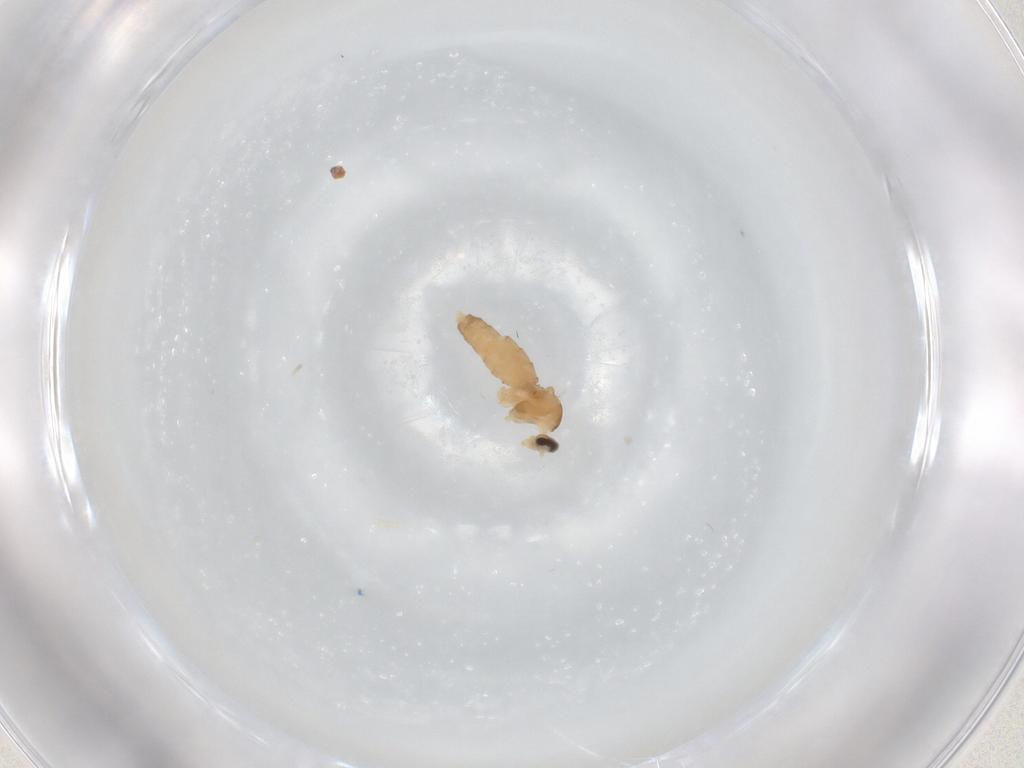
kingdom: Animalia
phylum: Arthropoda
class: Insecta
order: Diptera
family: Cecidomyiidae
